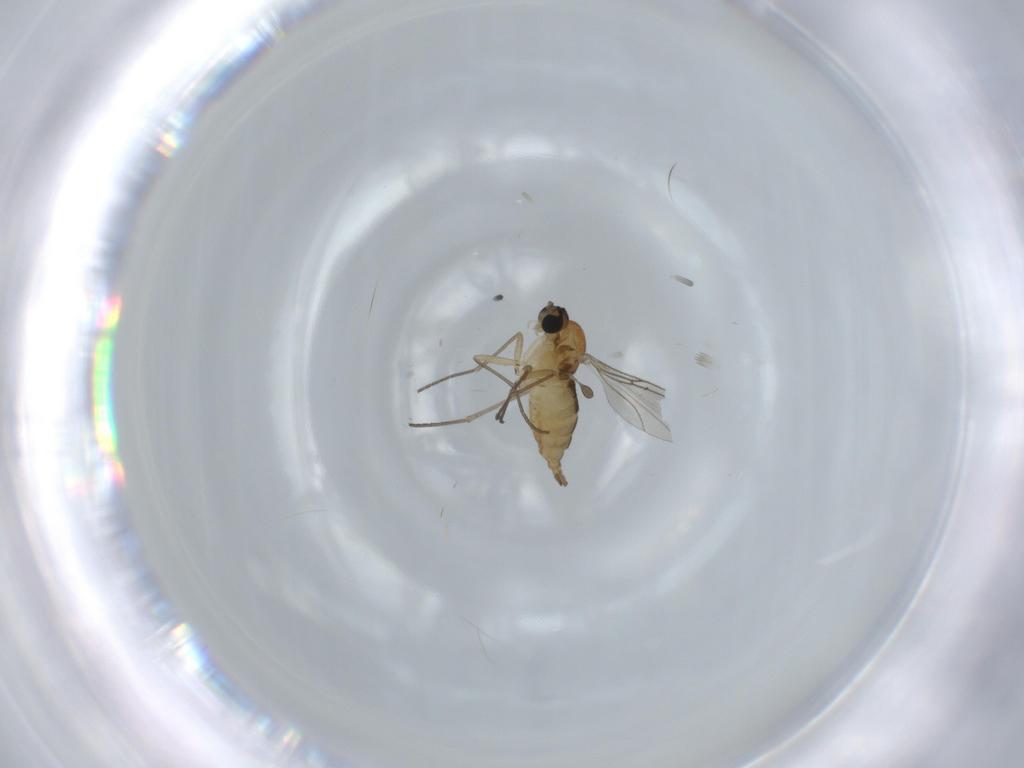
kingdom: Animalia
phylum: Arthropoda
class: Insecta
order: Diptera
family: Sciaridae
